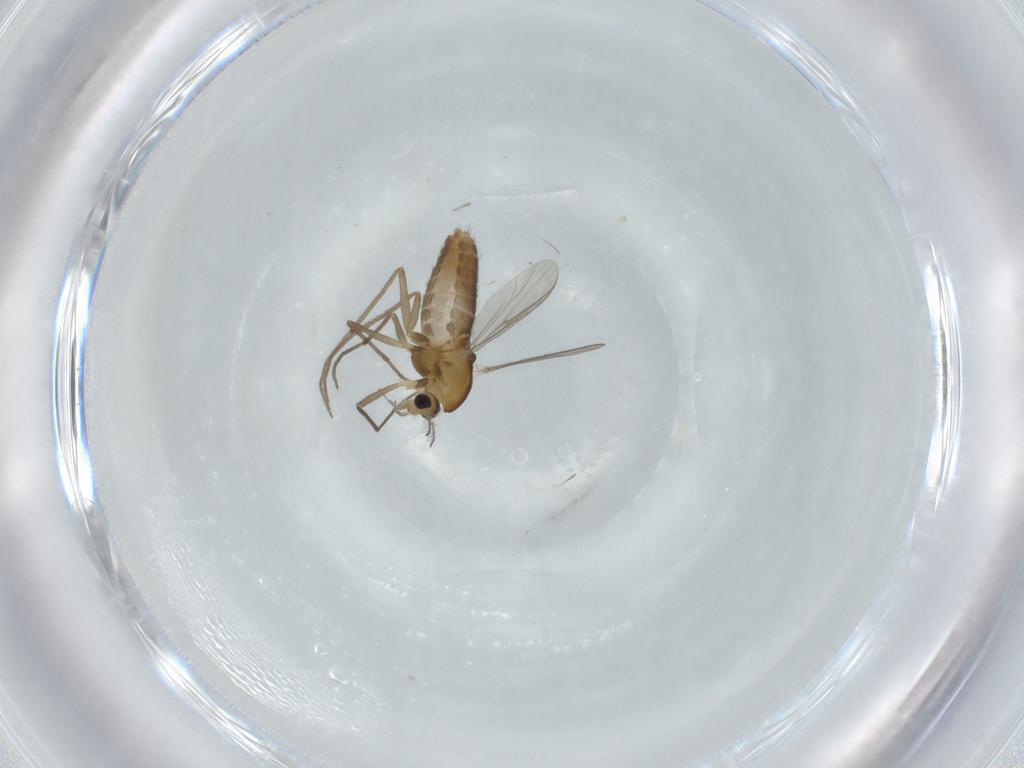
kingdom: Animalia
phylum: Arthropoda
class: Insecta
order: Diptera
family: Chironomidae
